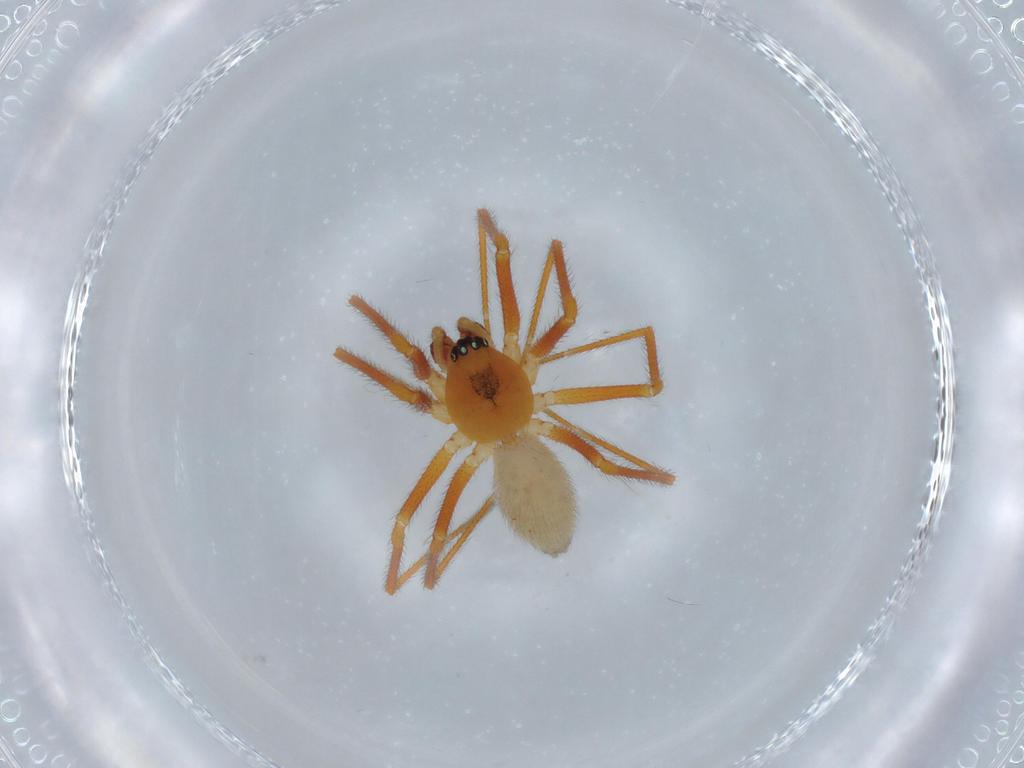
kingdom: Animalia
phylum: Arthropoda
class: Arachnida
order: Araneae
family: Linyphiidae
